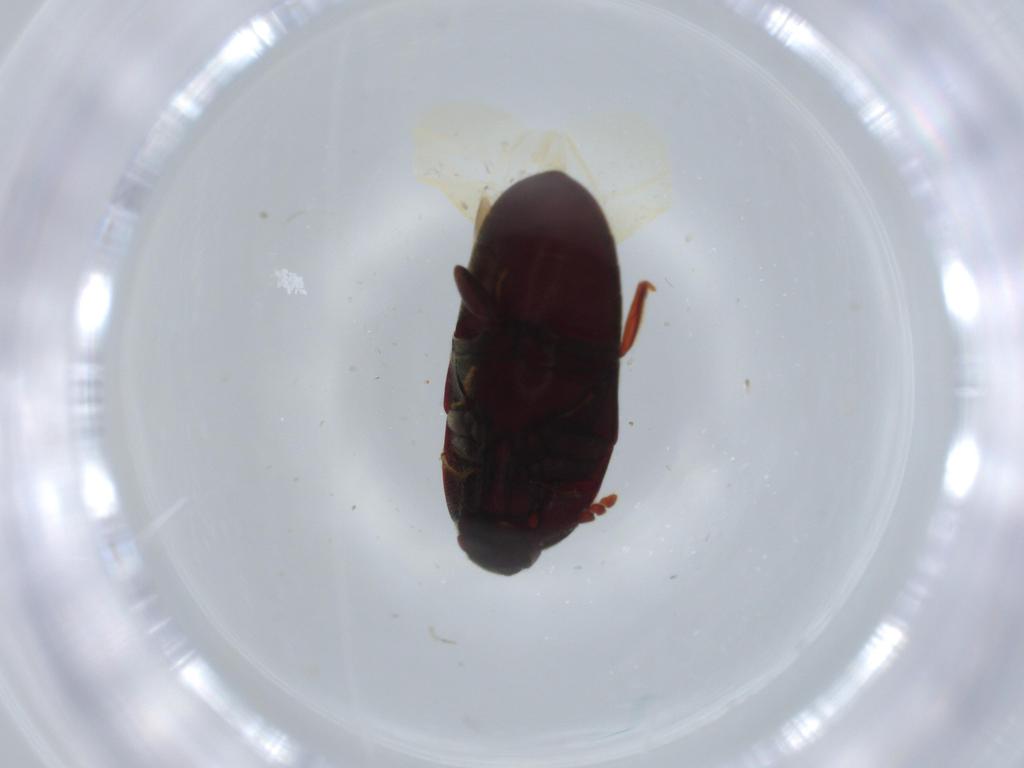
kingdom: Animalia
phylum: Arthropoda
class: Insecta
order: Coleoptera
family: Throscidae
